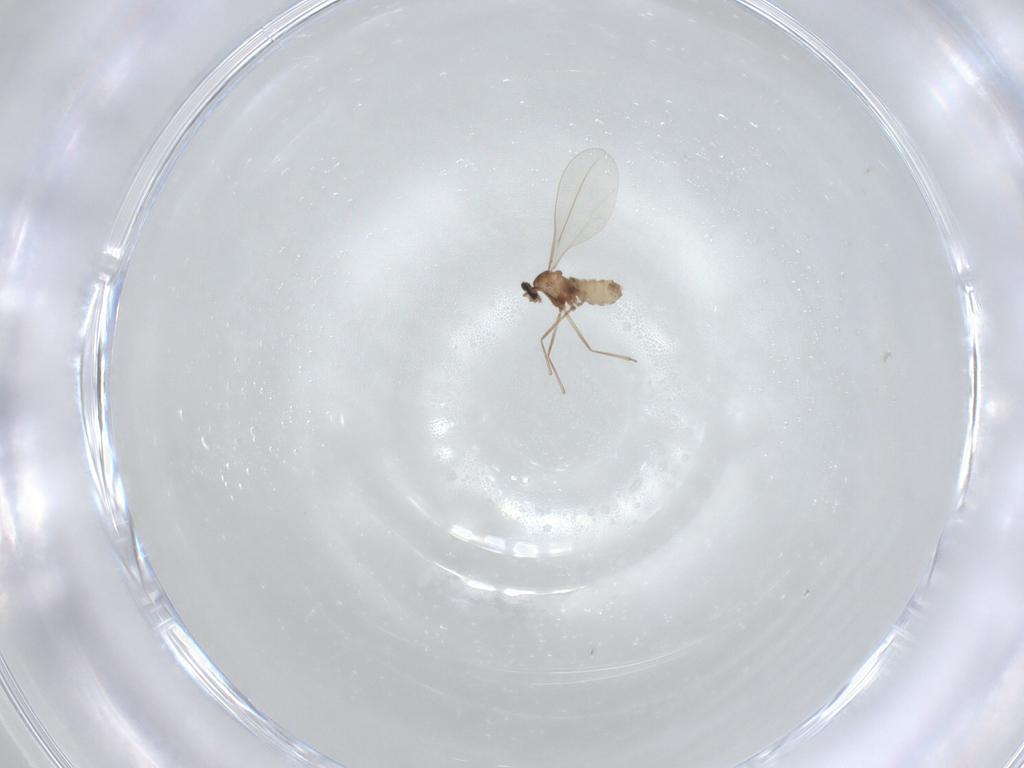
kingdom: Animalia
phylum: Arthropoda
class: Insecta
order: Diptera
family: Cecidomyiidae
